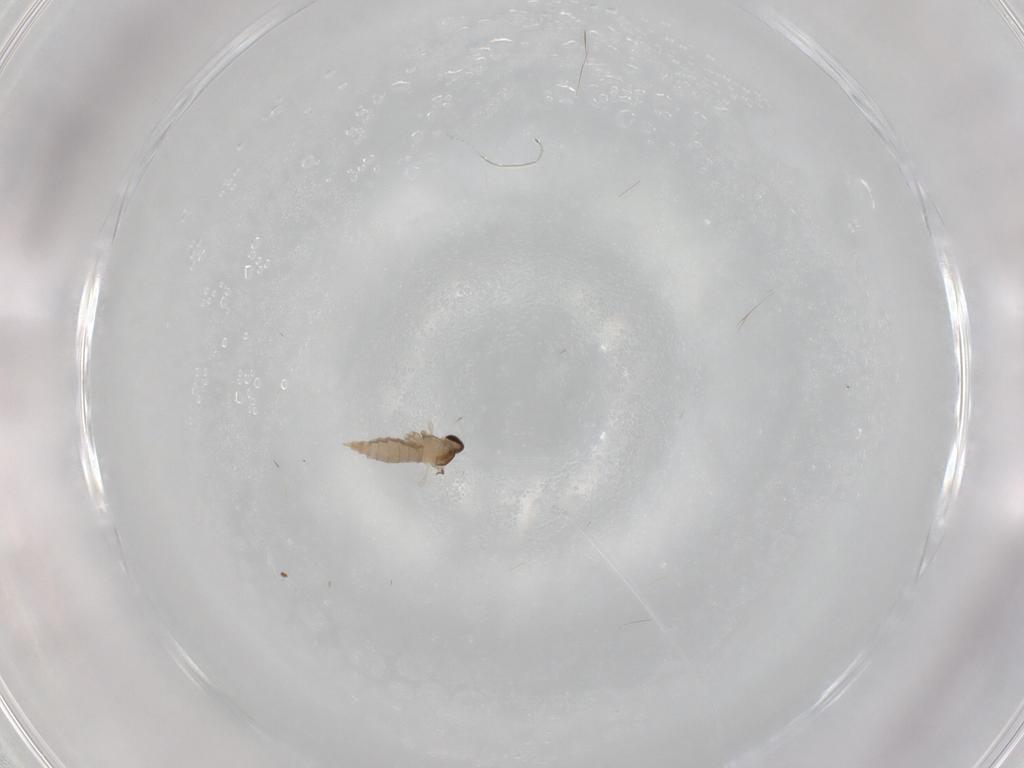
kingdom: Animalia
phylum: Arthropoda
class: Insecta
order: Diptera
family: Cecidomyiidae
